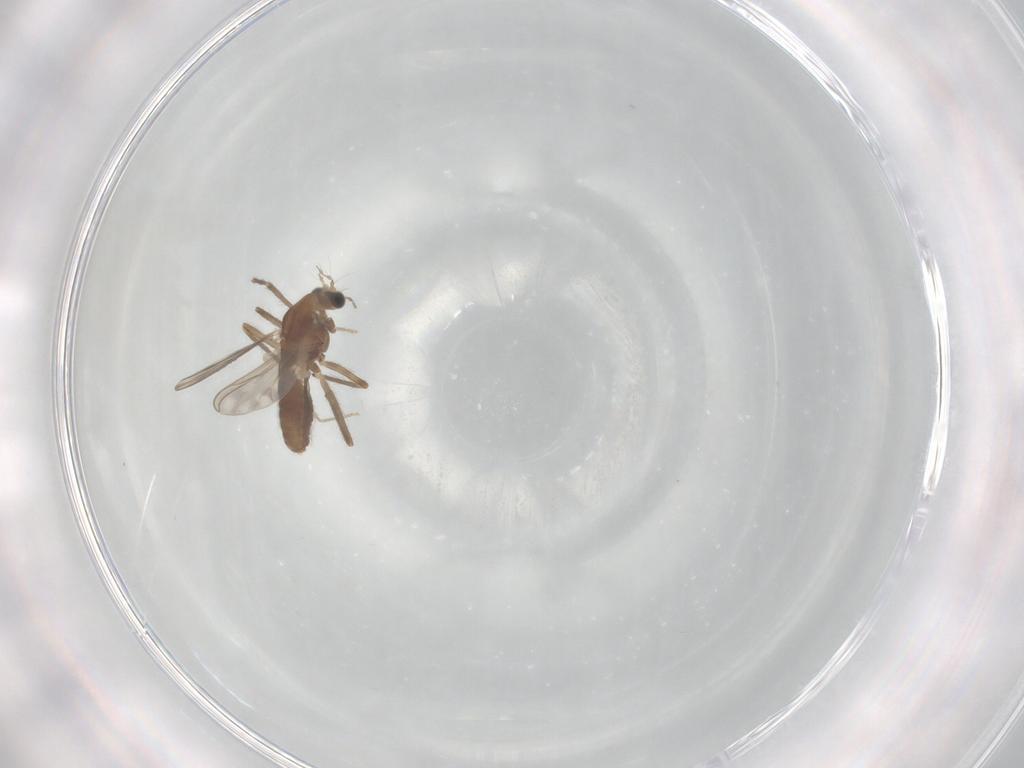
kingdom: Animalia
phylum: Arthropoda
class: Insecta
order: Diptera
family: Chironomidae
